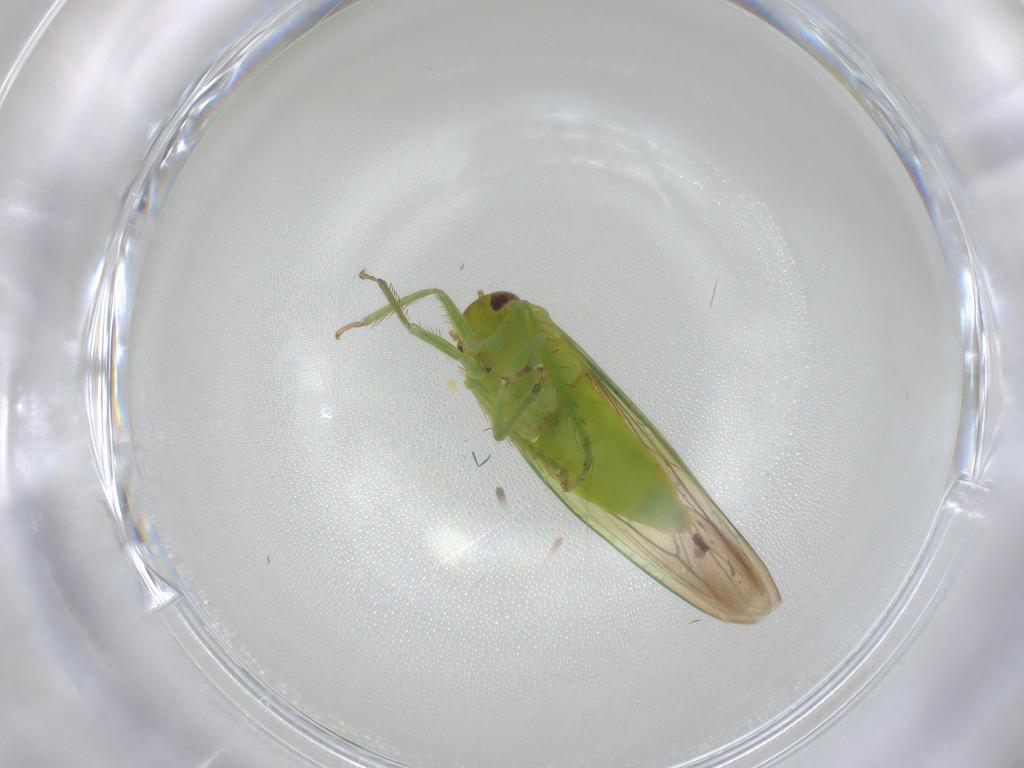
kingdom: Animalia
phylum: Arthropoda
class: Insecta
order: Hemiptera
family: Cicadellidae
